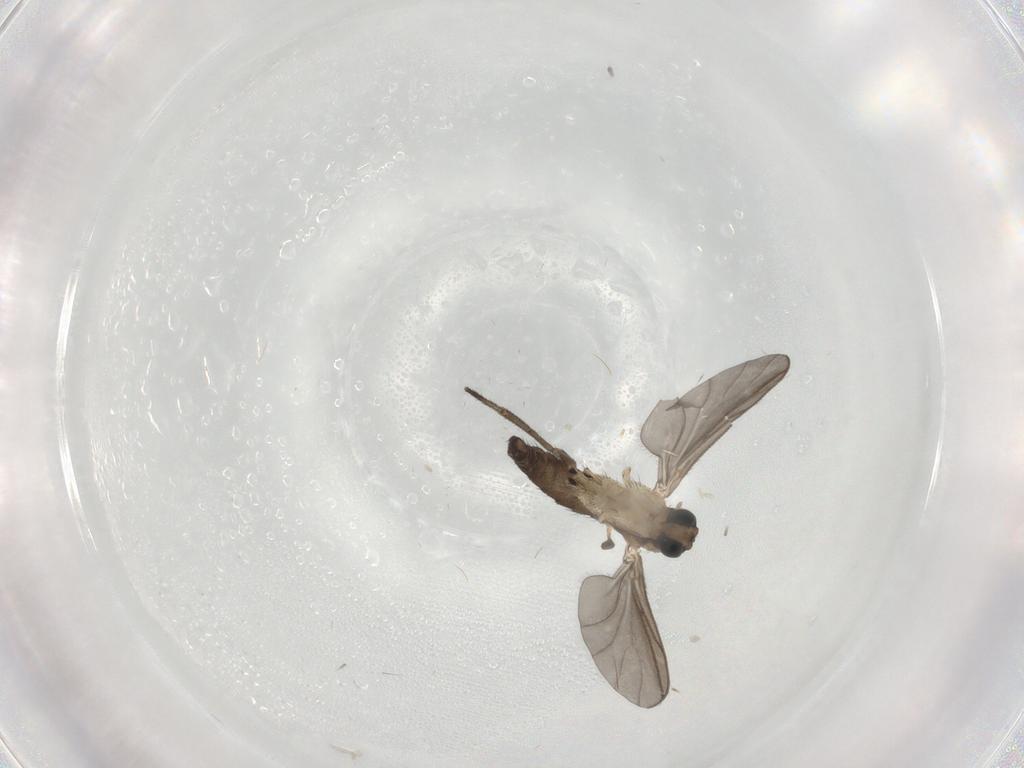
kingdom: Animalia
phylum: Arthropoda
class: Insecta
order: Diptera
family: Sciaridae
